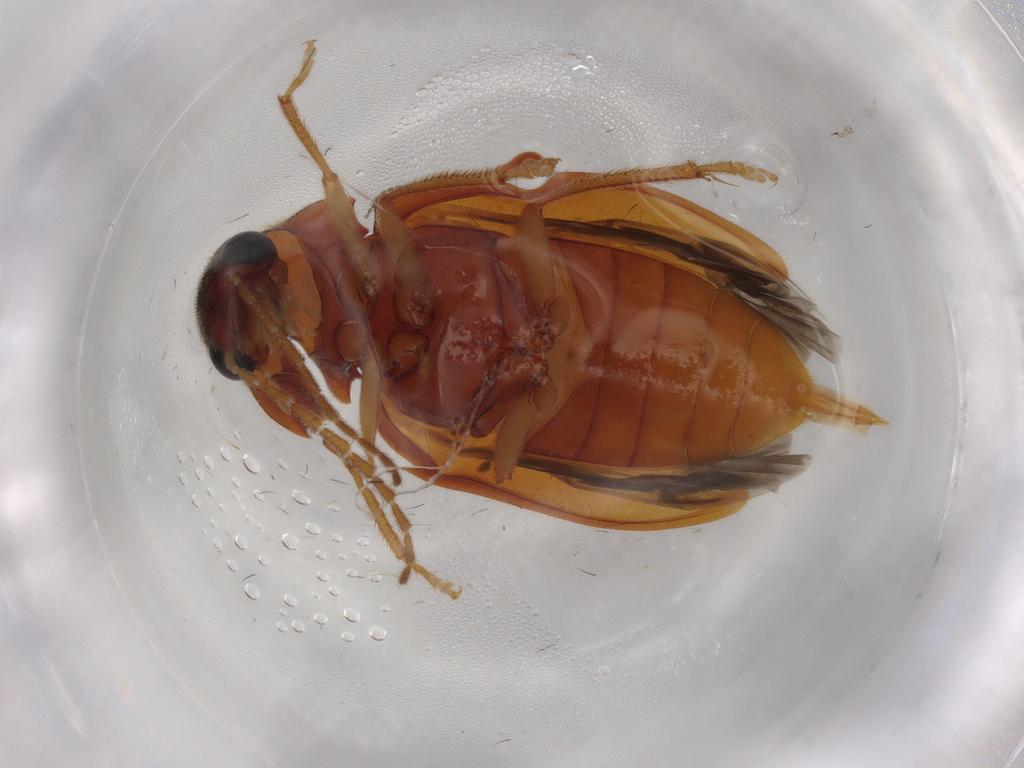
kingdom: Animalia
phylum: Arthropoda
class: Insecta
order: Coleoptera
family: Ptilodactylidae
